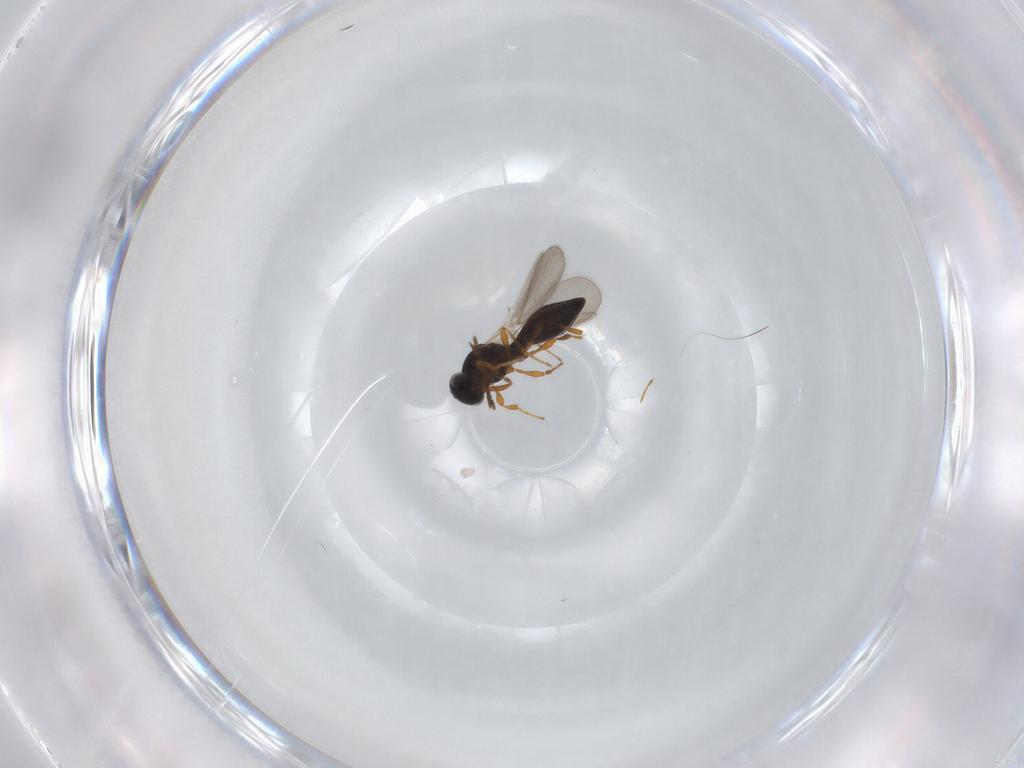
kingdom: Animalia
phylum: Arthropoda
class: Insecta
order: Hymenoptera
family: Platygastridae
